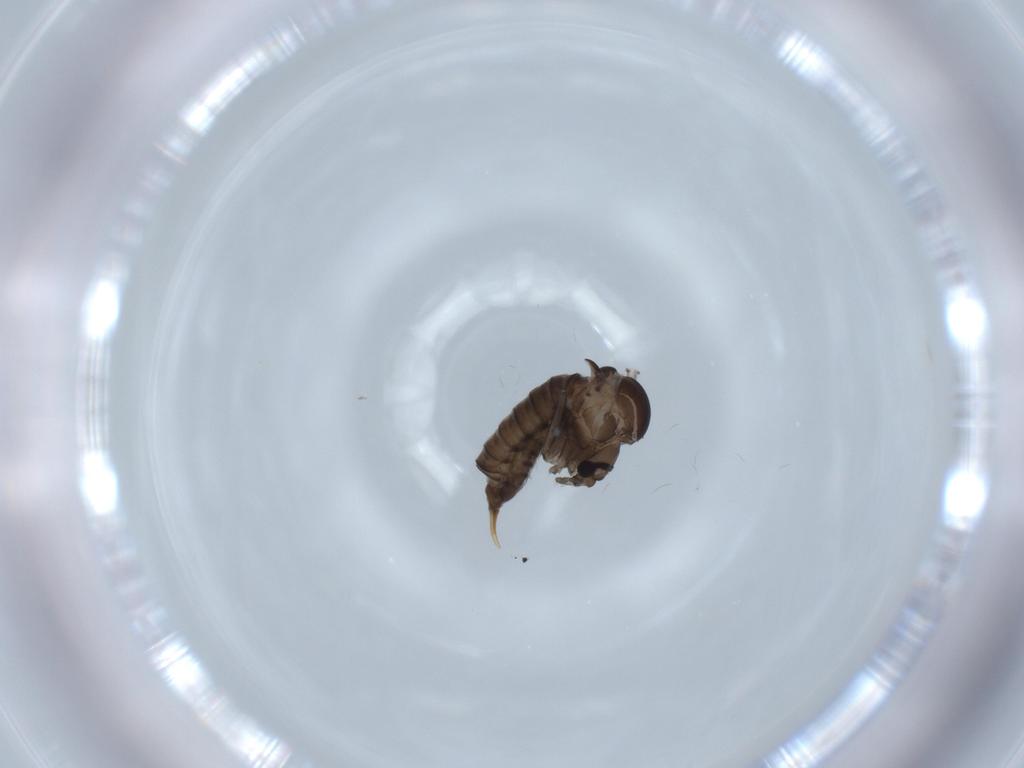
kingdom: Animalia
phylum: Arthropoda
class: Insecta
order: Diptera
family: Psychodidae
